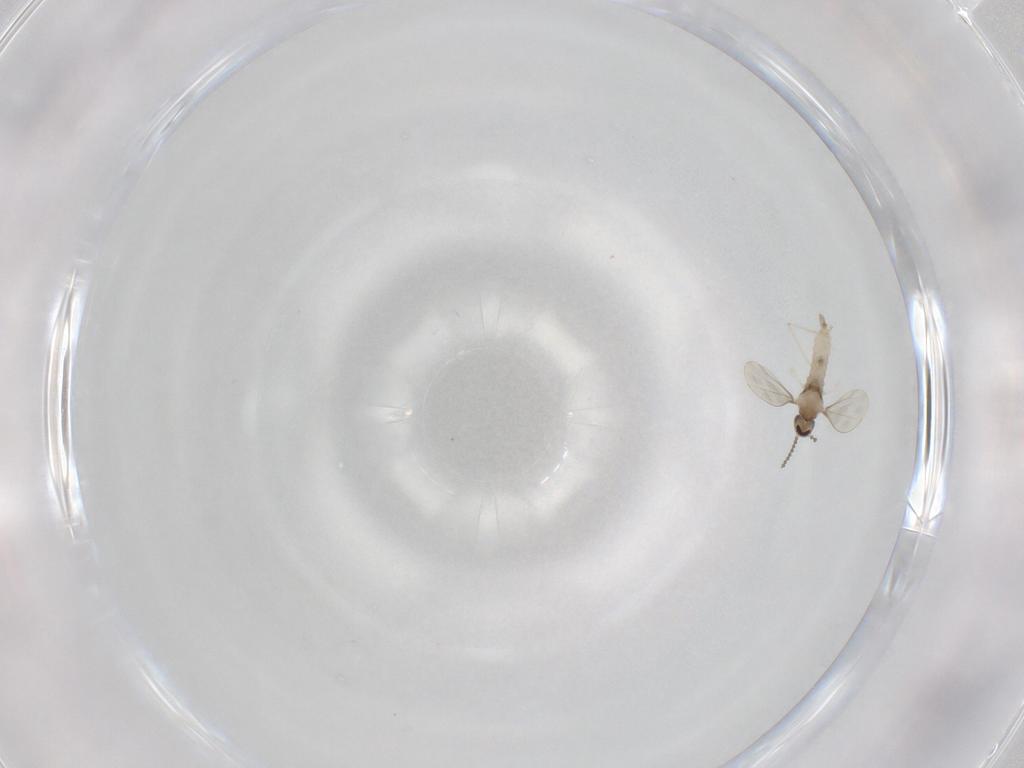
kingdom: Animalia
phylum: Arthropoda
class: Insecta
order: Diptera
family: Cecidomyiidae
